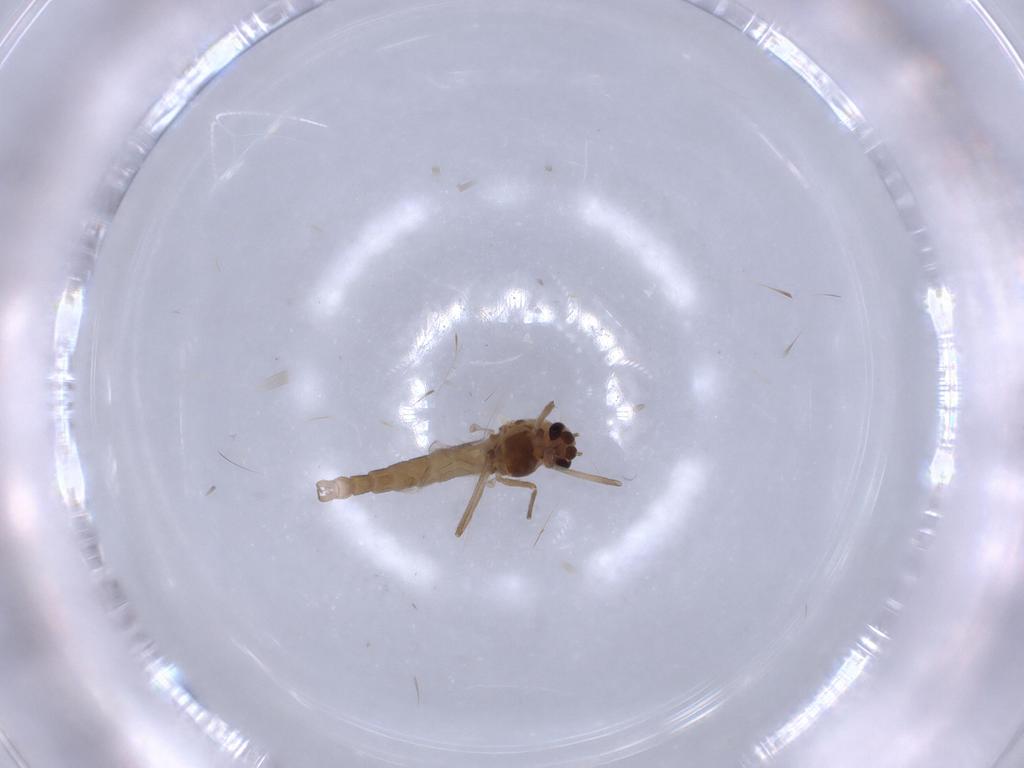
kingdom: Animalia
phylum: Arthropoda
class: Insecta
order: Diptera
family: Chironomidae
